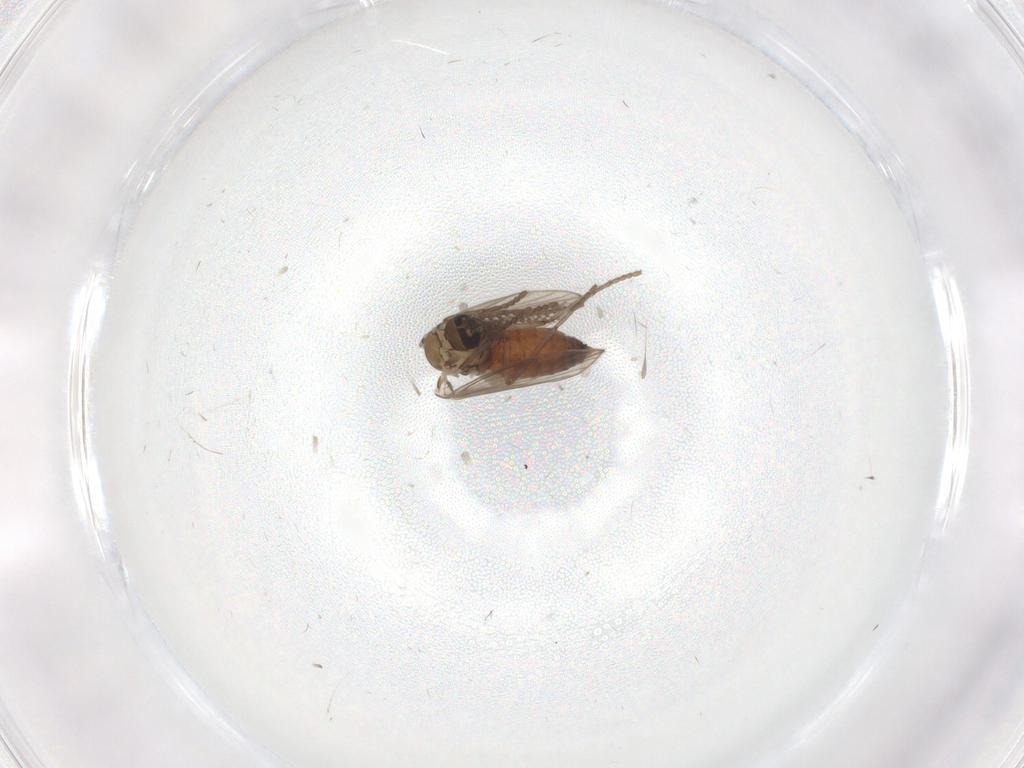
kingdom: Animalia
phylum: Arthropoda
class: Insecta
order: Diptera
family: Psychodidae
